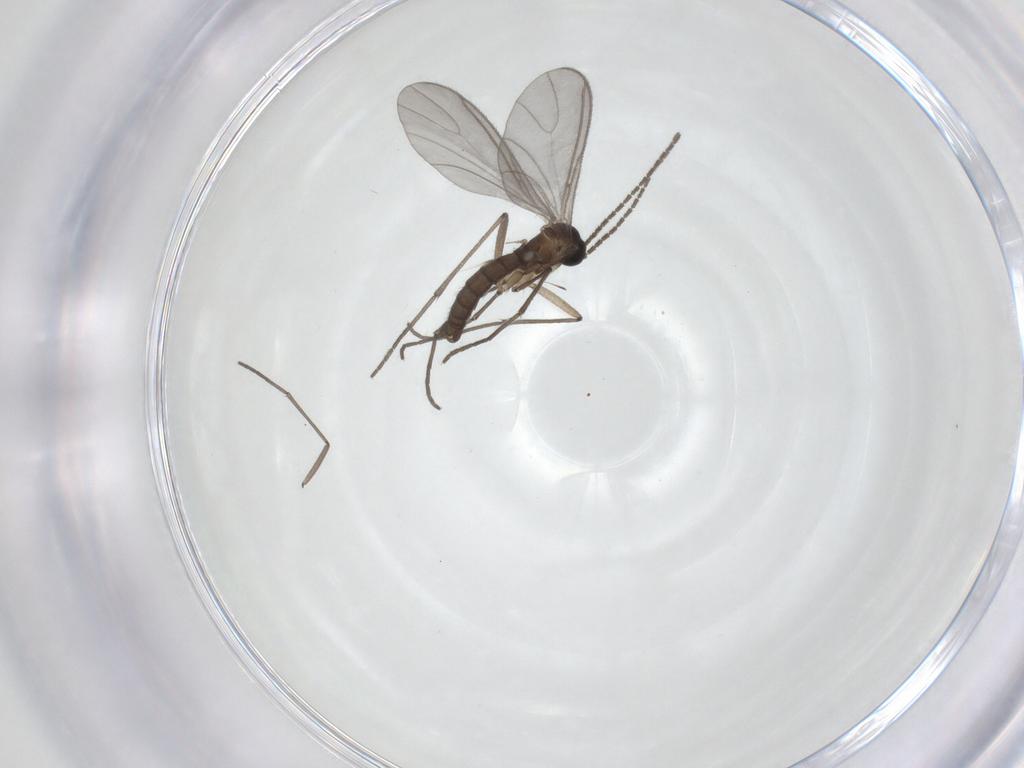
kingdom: Animalia
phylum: Arthropoda
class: Insecta
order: Diptera
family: Sciaridae
